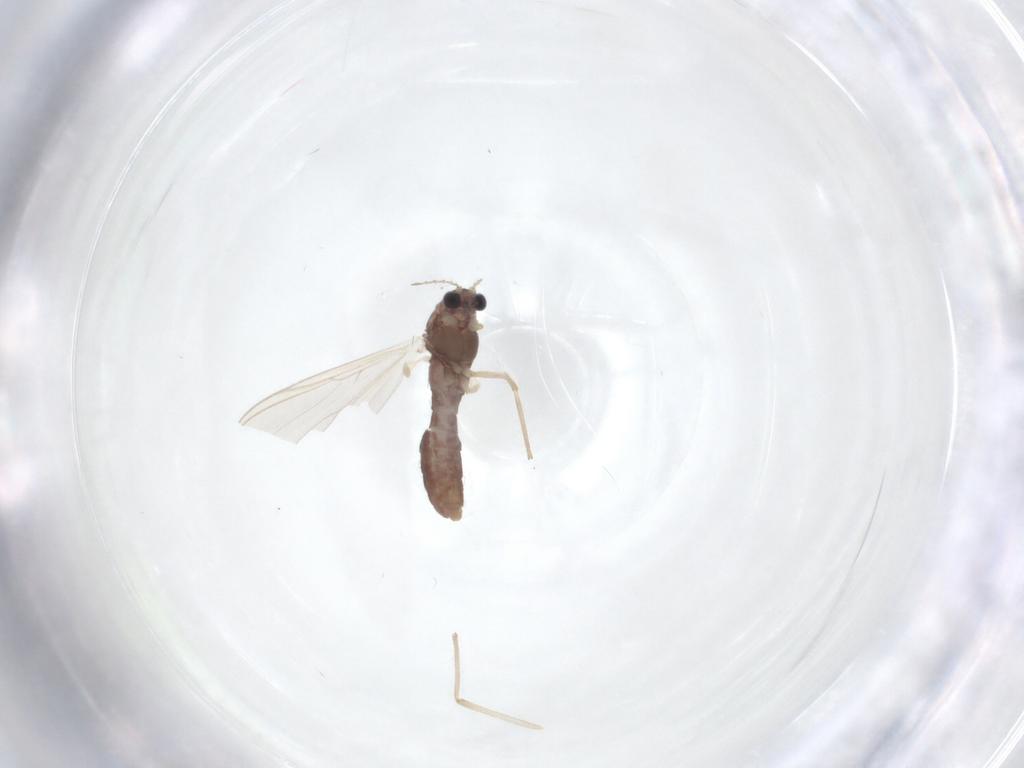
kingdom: Animalia
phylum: Arthropoda
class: Insecta
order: Diptera
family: Chironomidae
